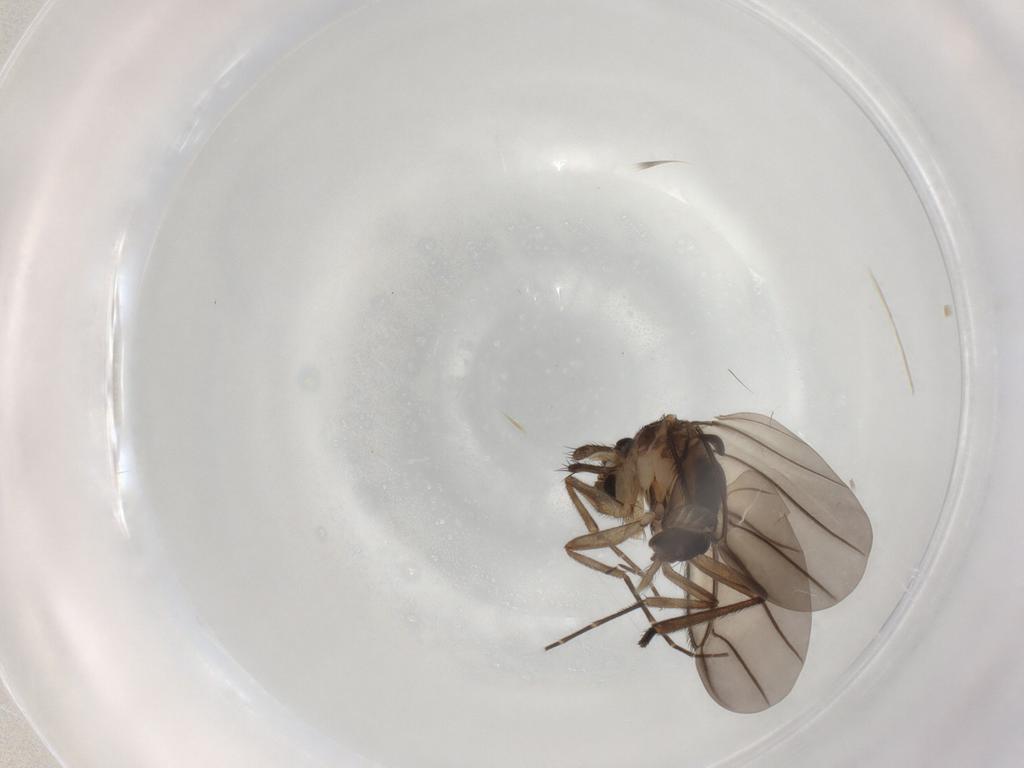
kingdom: Animalia
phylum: Arthropoda
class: Insecta
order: Diptera
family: Phoridae
